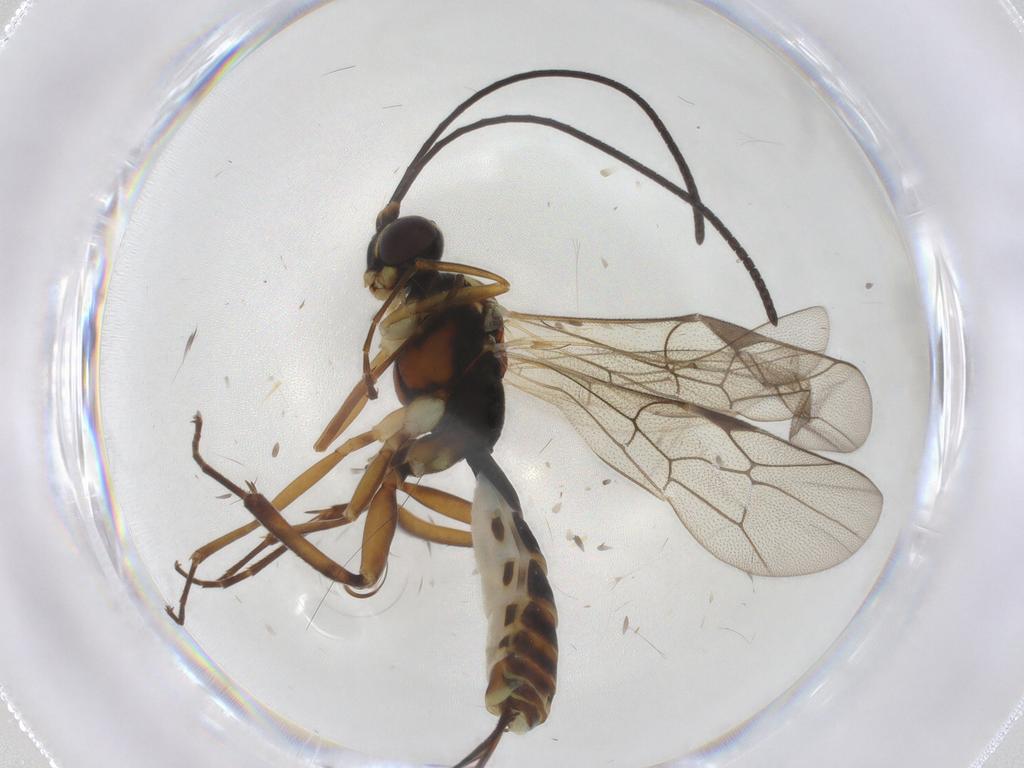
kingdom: Animalia
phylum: Arthropoda
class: Insecta
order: Hymenoptera
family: Ichneumonidae
